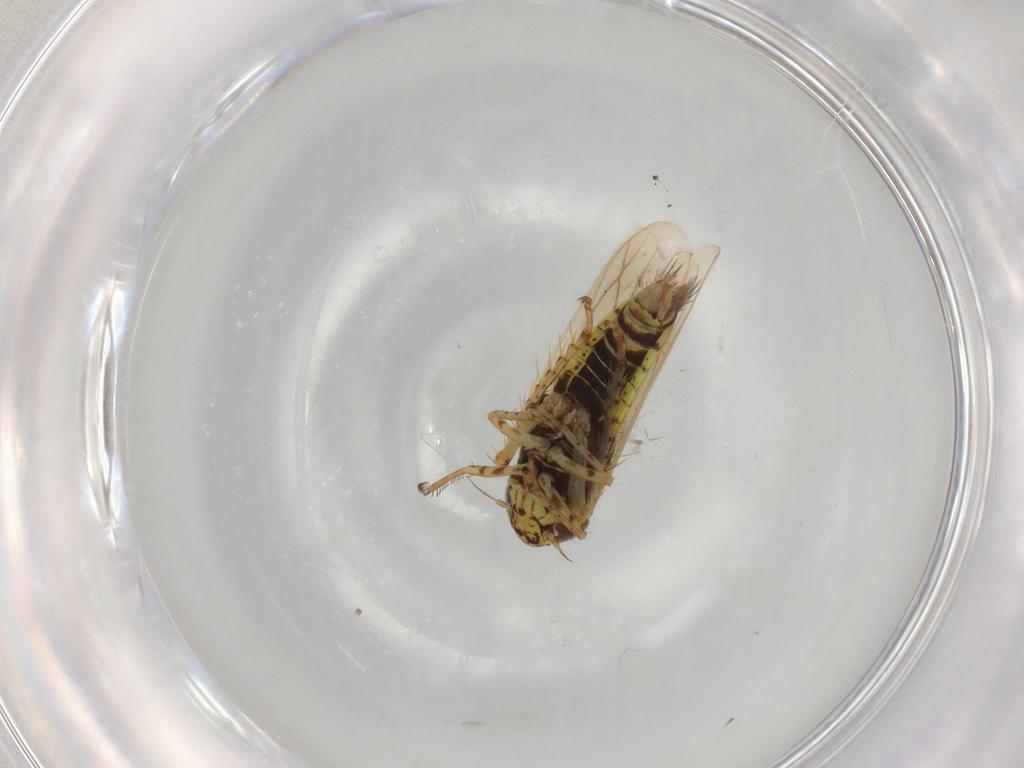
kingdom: Animalia
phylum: Arthropoda
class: Insecta
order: Hemiptera
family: Cicadellidae
